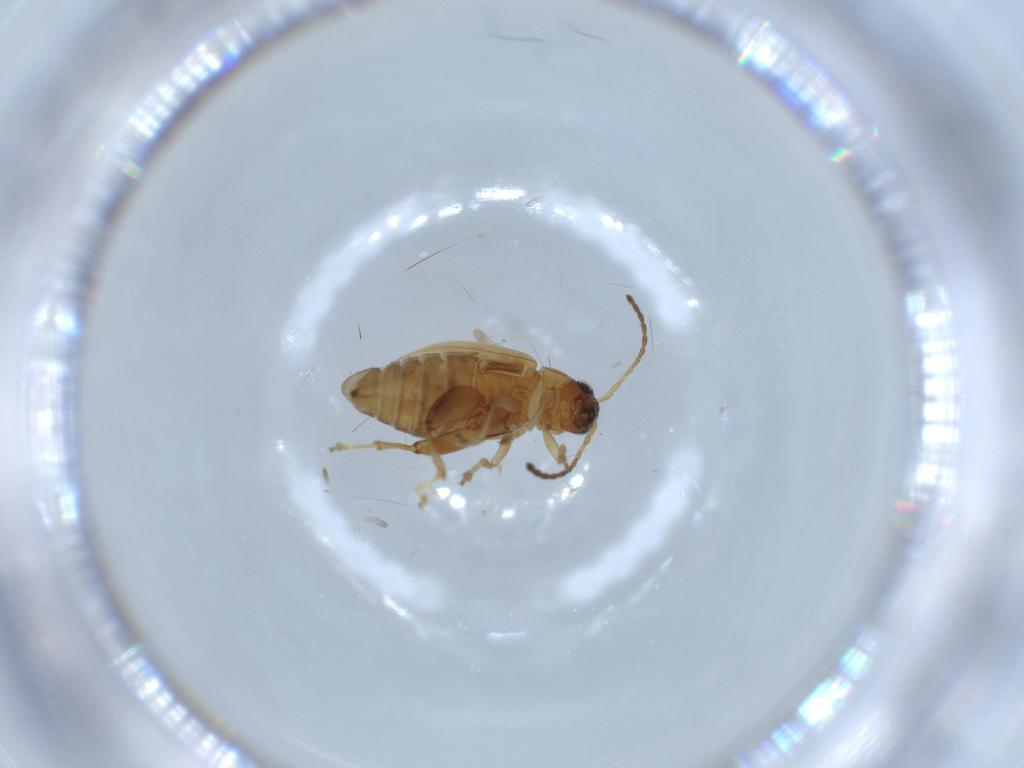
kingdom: Animalia
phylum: Arthropoda
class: Insecta
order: Coleoptera
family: Chrysomelidae
